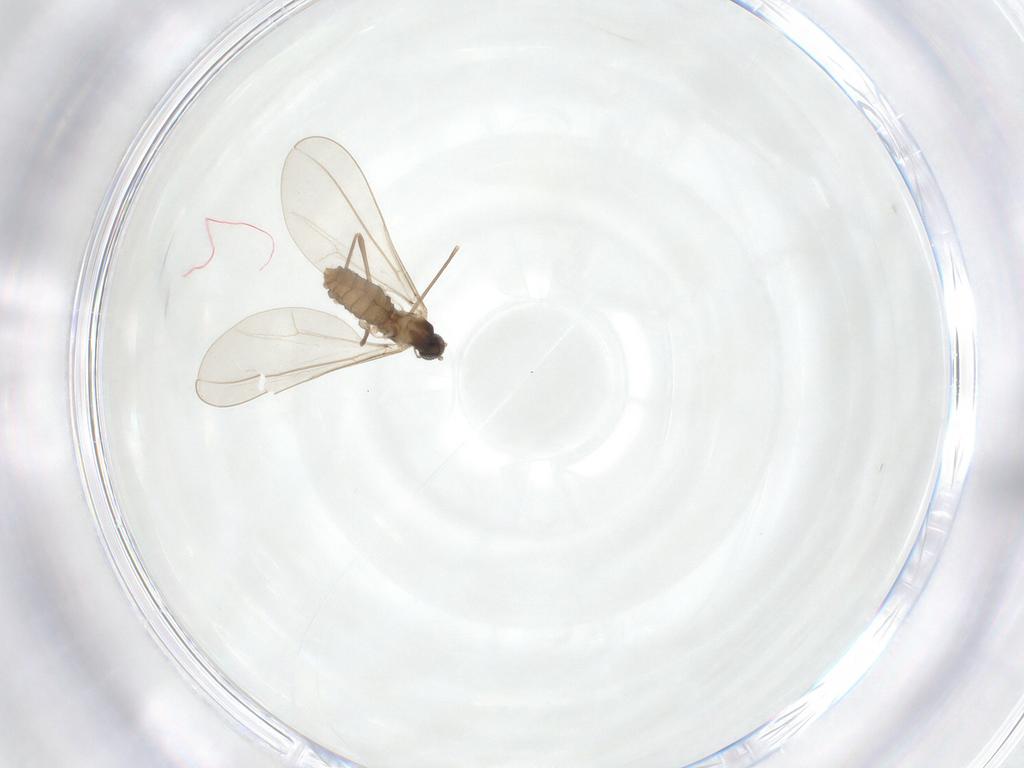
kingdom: Animalia
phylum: Arthropoda
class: Insecta
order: Diptera
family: Cecidomyiidae
